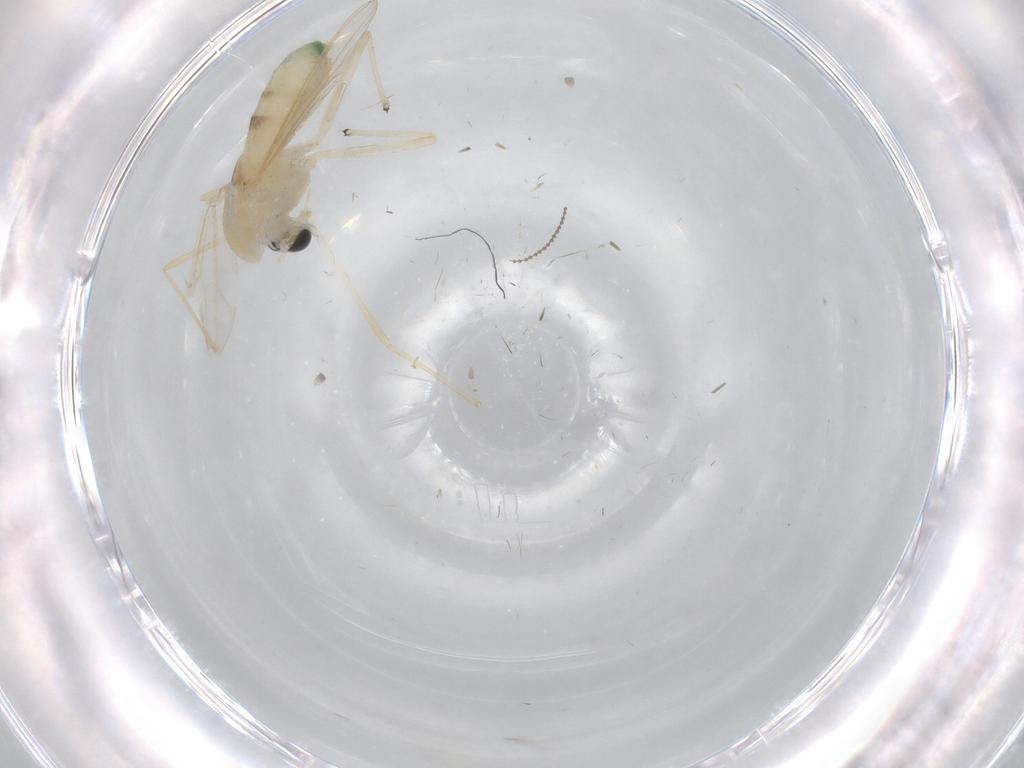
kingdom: Animalia
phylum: Arthropoda
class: Insecta
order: Diptera
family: Chironomidae
